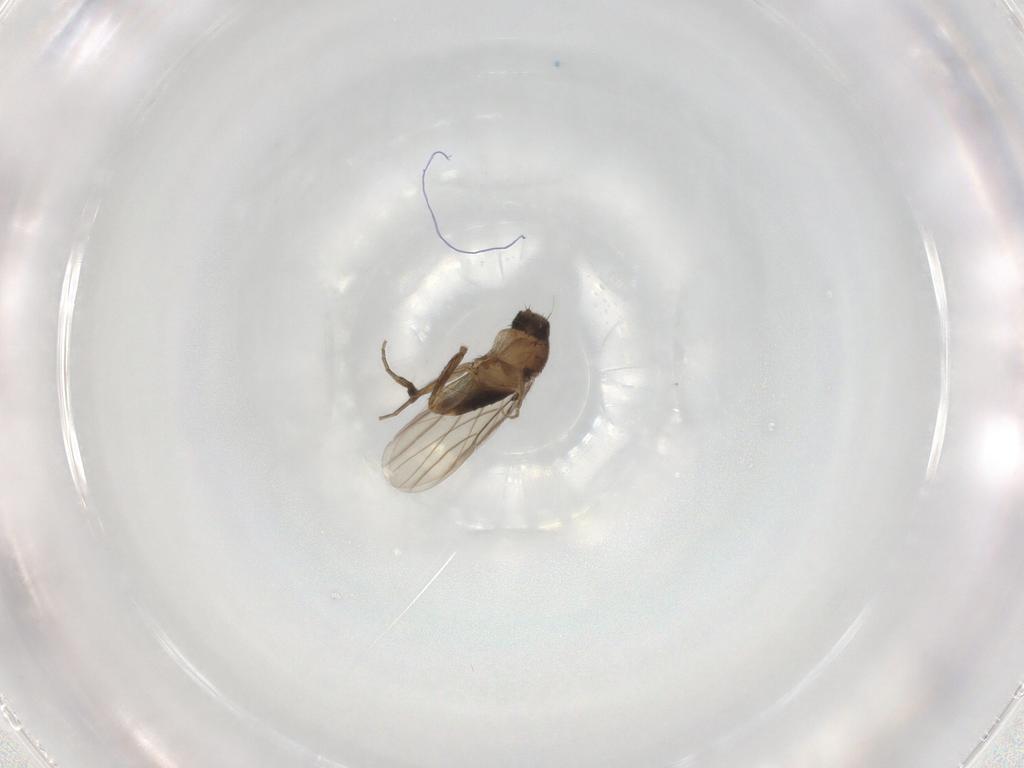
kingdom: Animalia
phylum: Arthropoda
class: Insecta
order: Diptera
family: Phoridae
